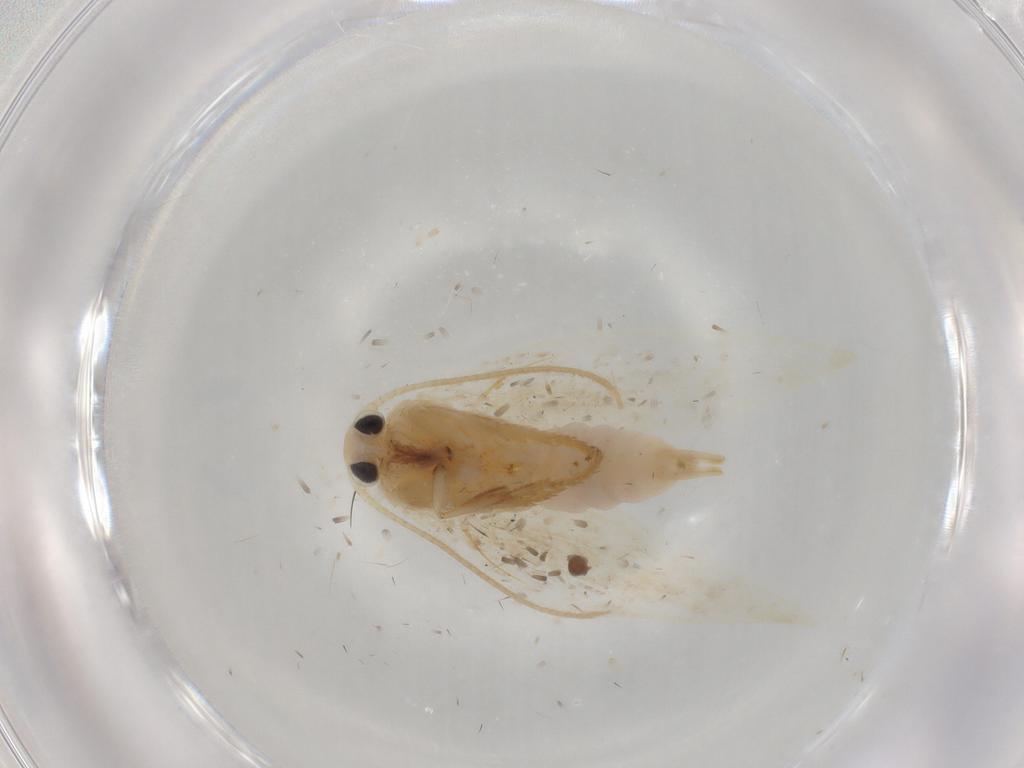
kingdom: Animalia
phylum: Arthropoda
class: Insecta
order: Lepidoptera
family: Elachistidae
